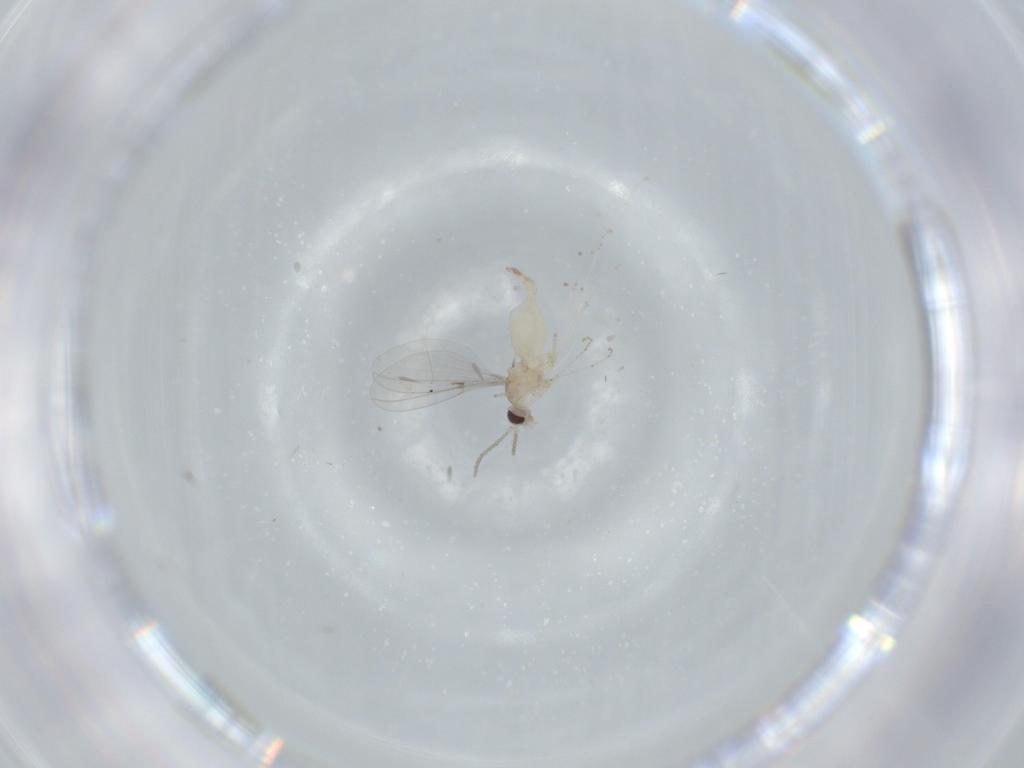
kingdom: Animalia
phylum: Arthropoda
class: Insecta
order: Diptera
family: Cecidomyiidae
